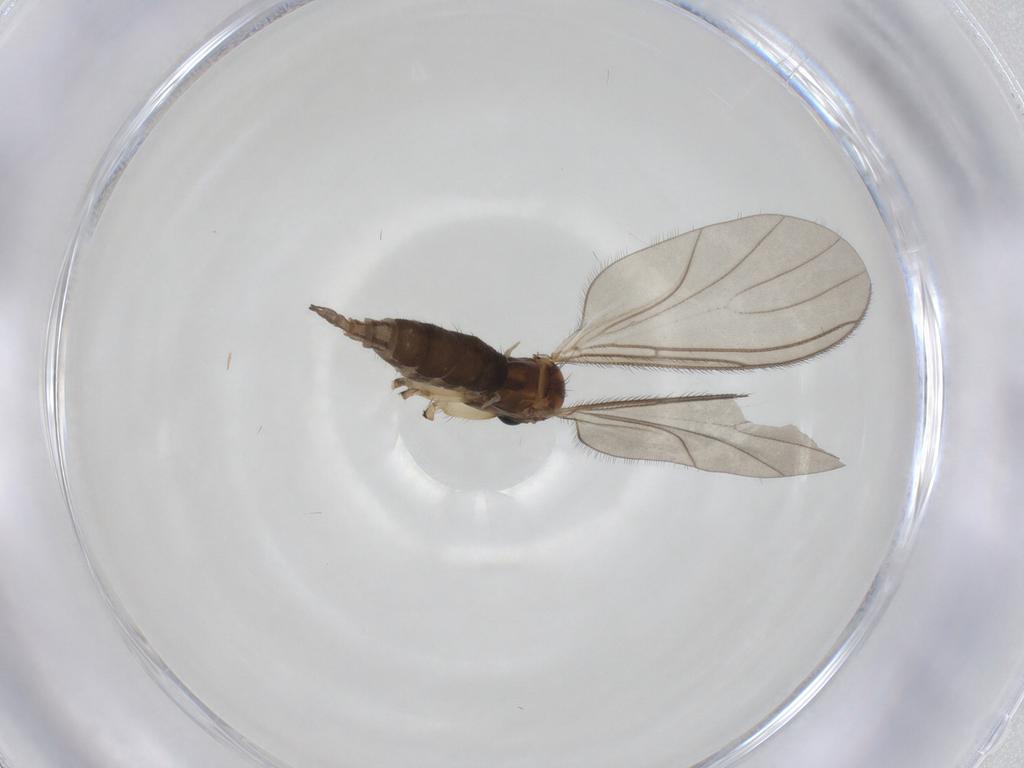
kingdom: Animalia
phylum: Arthropoda
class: Insecta
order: Diptera
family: Sciaridae
